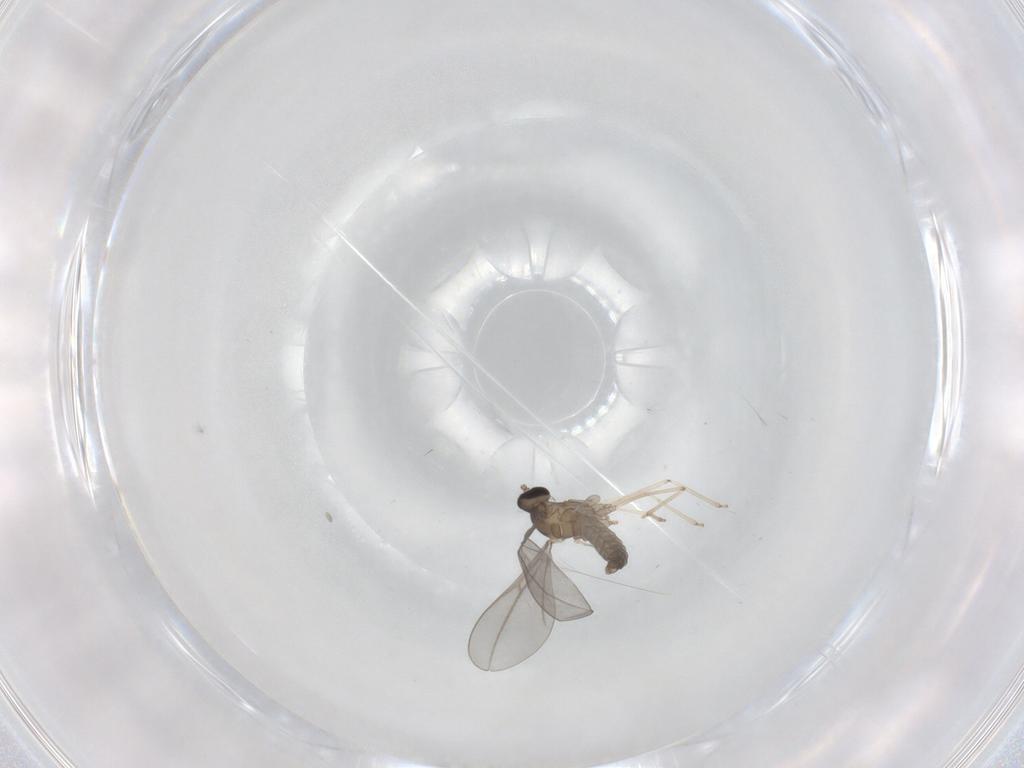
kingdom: Animalia
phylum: Arthropoda
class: Insecta
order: Diptera
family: Cecidomyiidae
